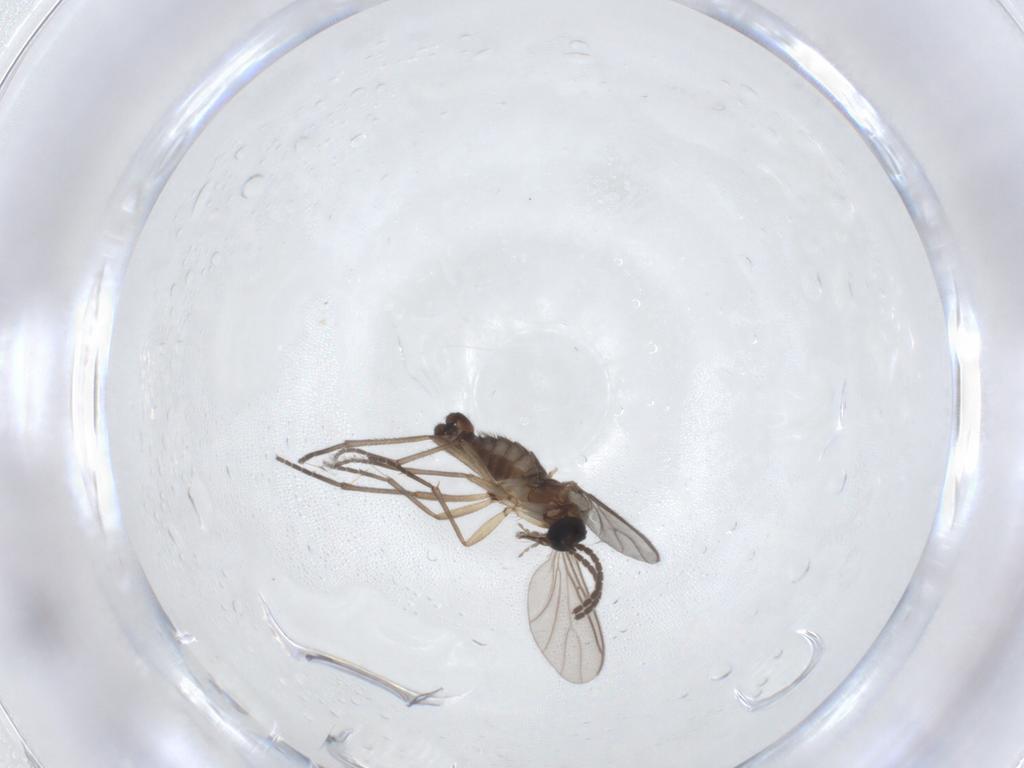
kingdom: Animalia
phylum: Arthropoda
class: Insecta
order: Diptera
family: Sciaridae
